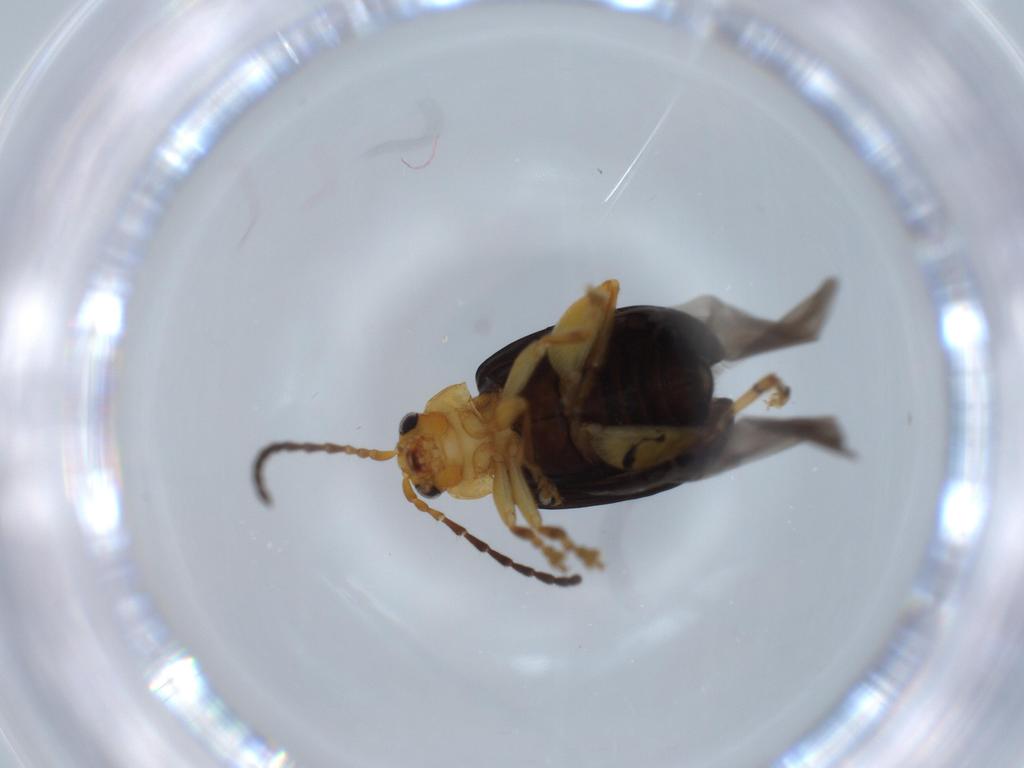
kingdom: Animalia
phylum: Arthropoda
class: Insecta
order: Coleoptera
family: Chrysomelidae
